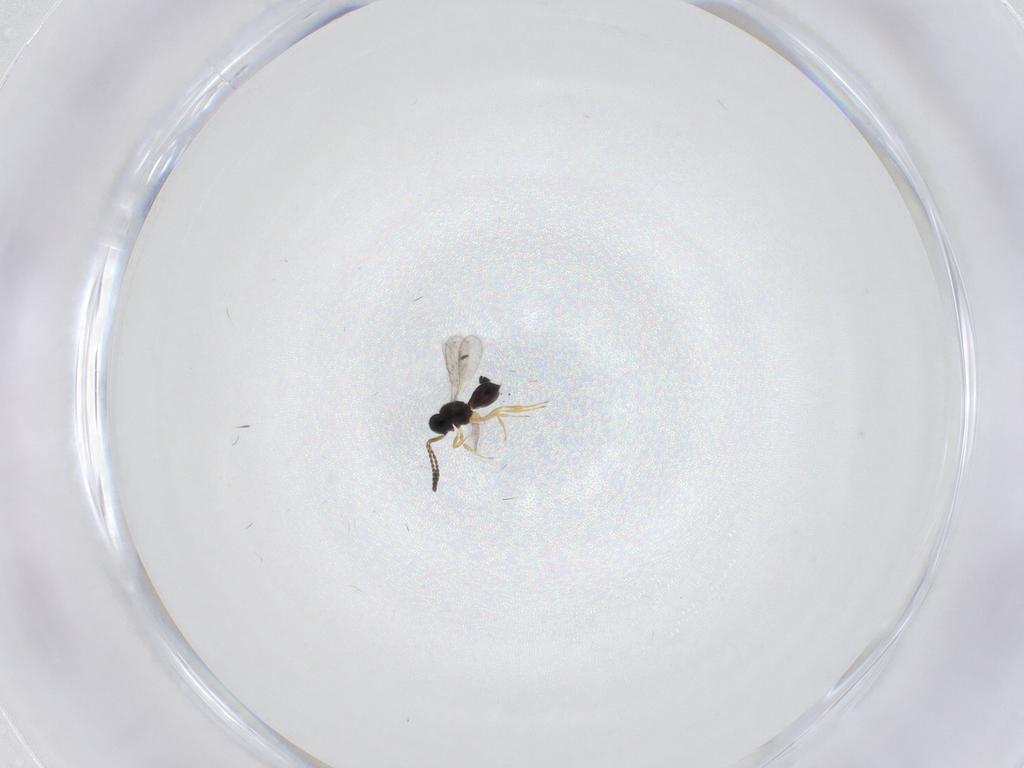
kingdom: Animalia
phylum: Arthropoda
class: Insecta
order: Hymenoptera
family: Scelionidae
